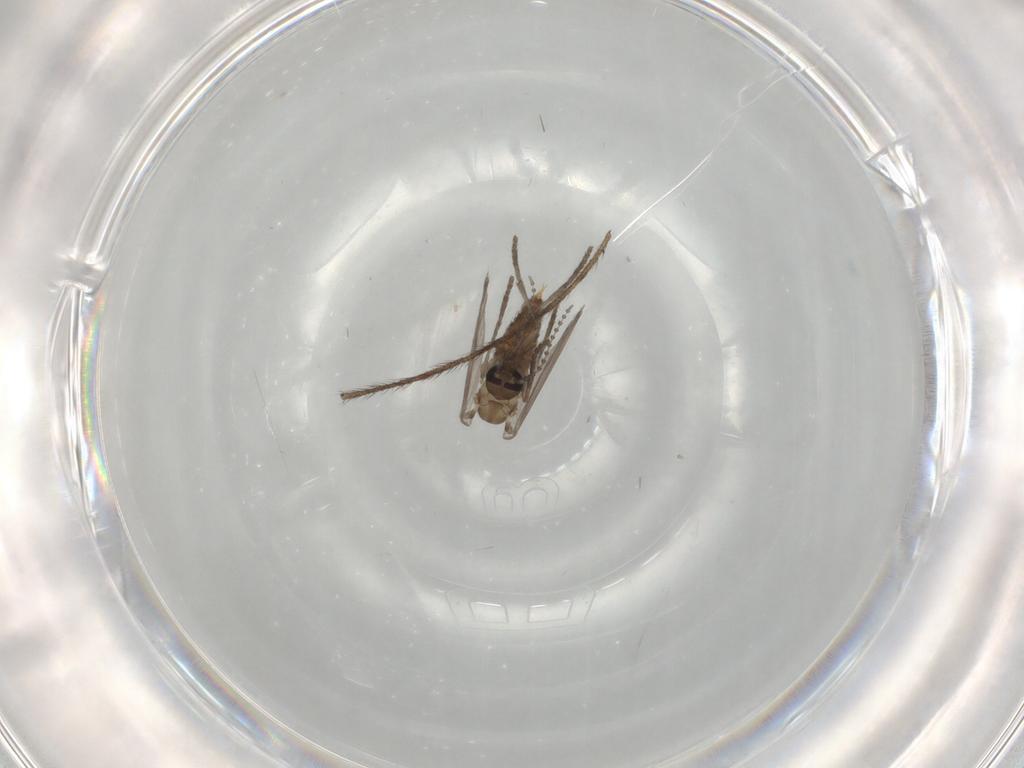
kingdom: Animalia
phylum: Arthropoda
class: Insecta
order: Diptera
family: Psychodidae
